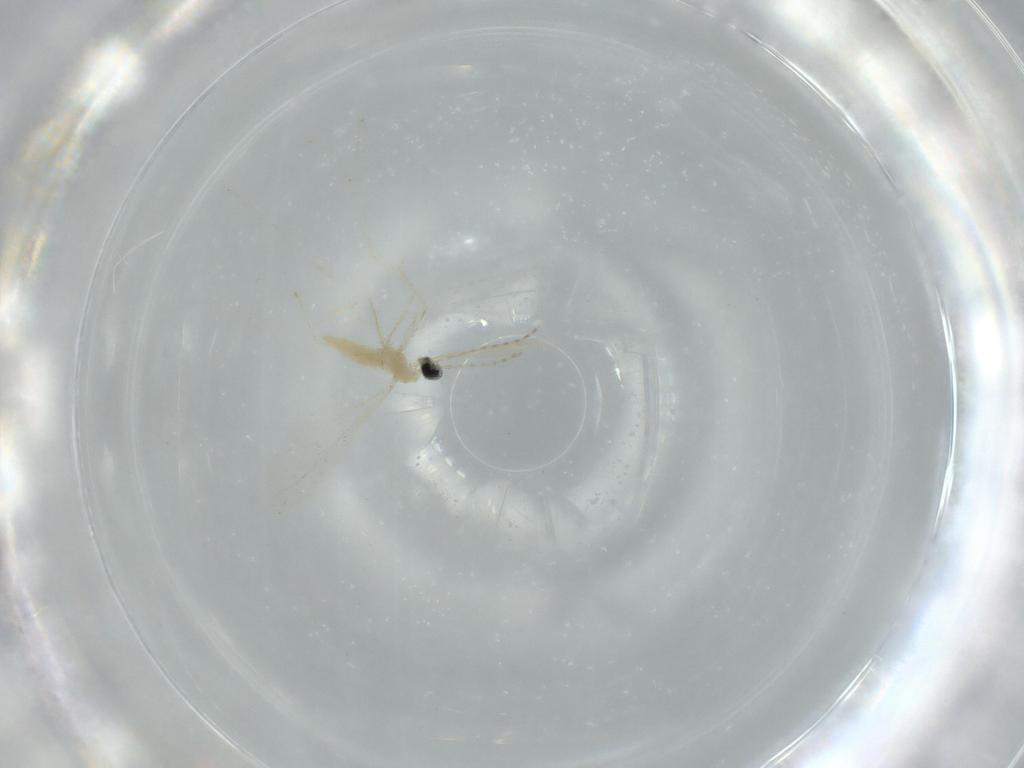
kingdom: Animalia
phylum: Arthropoda
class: Insecta
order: Diptera
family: Cecidomyiidae
